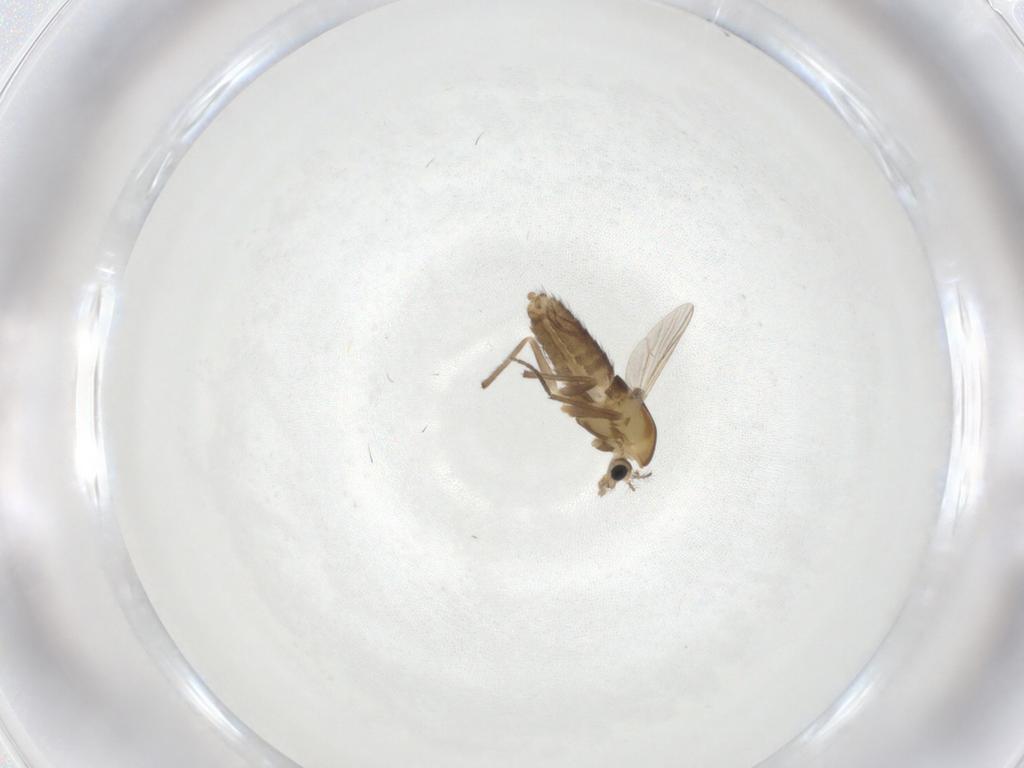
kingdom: Animalia
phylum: Arthropoda
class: Insecta
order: Diptera
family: Chironomidae
